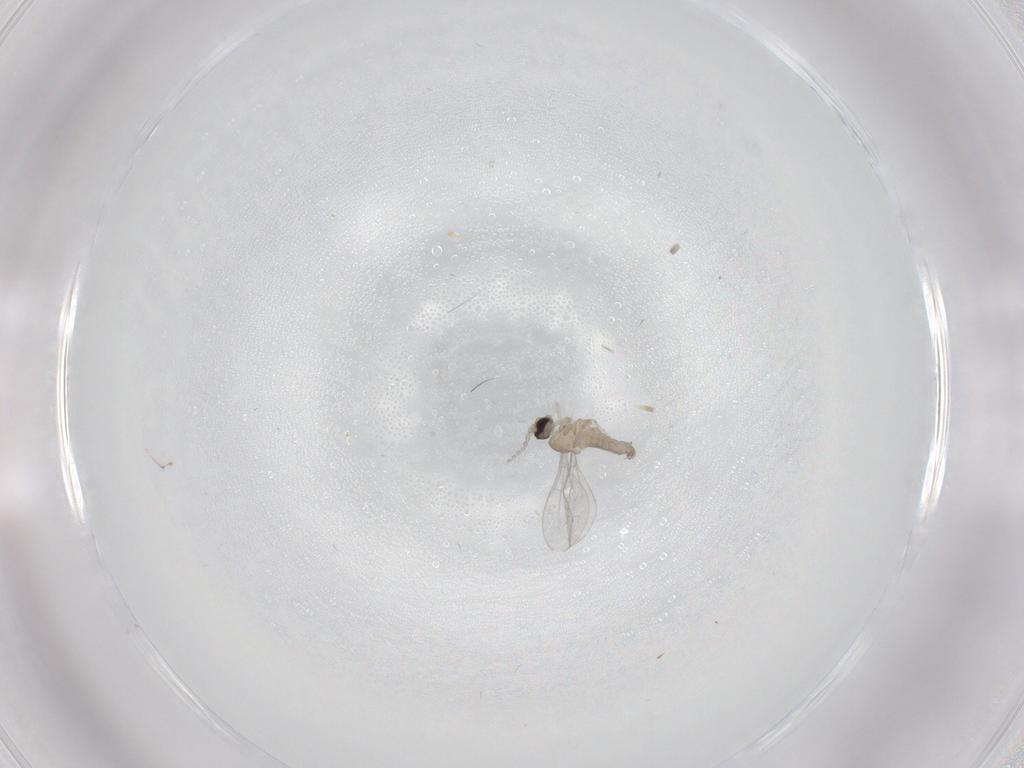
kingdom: Animalia
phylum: Arthropoda
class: Insecta
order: Diptera
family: Cecidomyiidae
